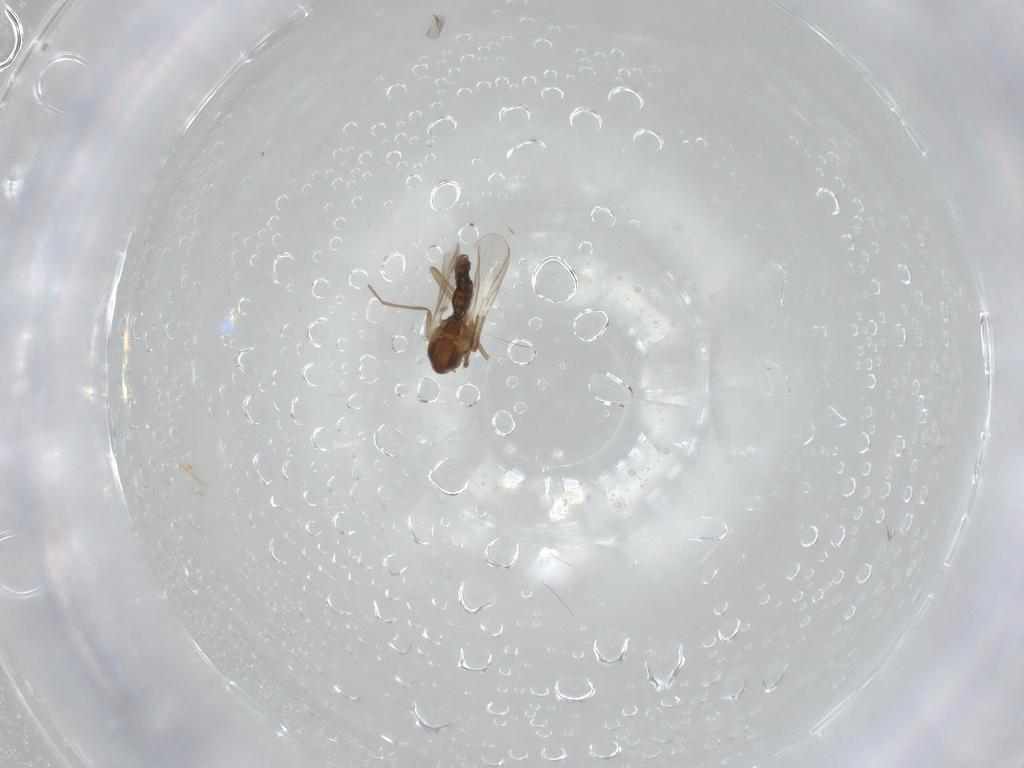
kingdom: Animalia
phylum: Arthropoda
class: Insecta
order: Diptera
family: Chironomidae
